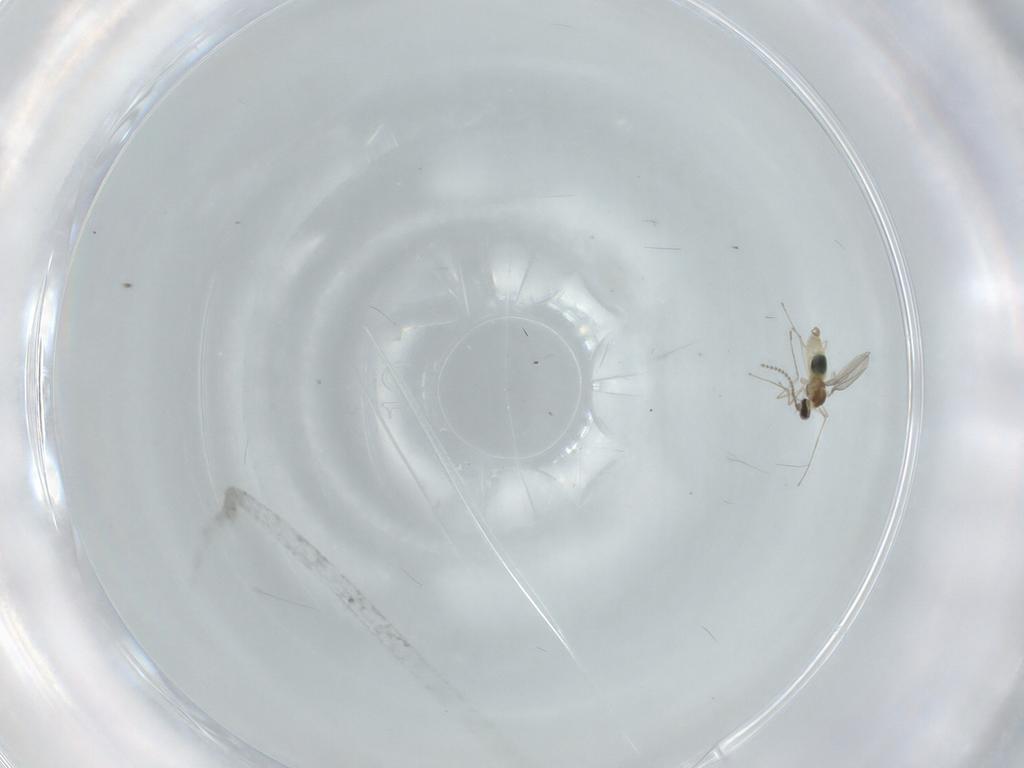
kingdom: Animalia
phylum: Arthropoda
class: Insecta
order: Diptera
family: Cecidomyiidae
